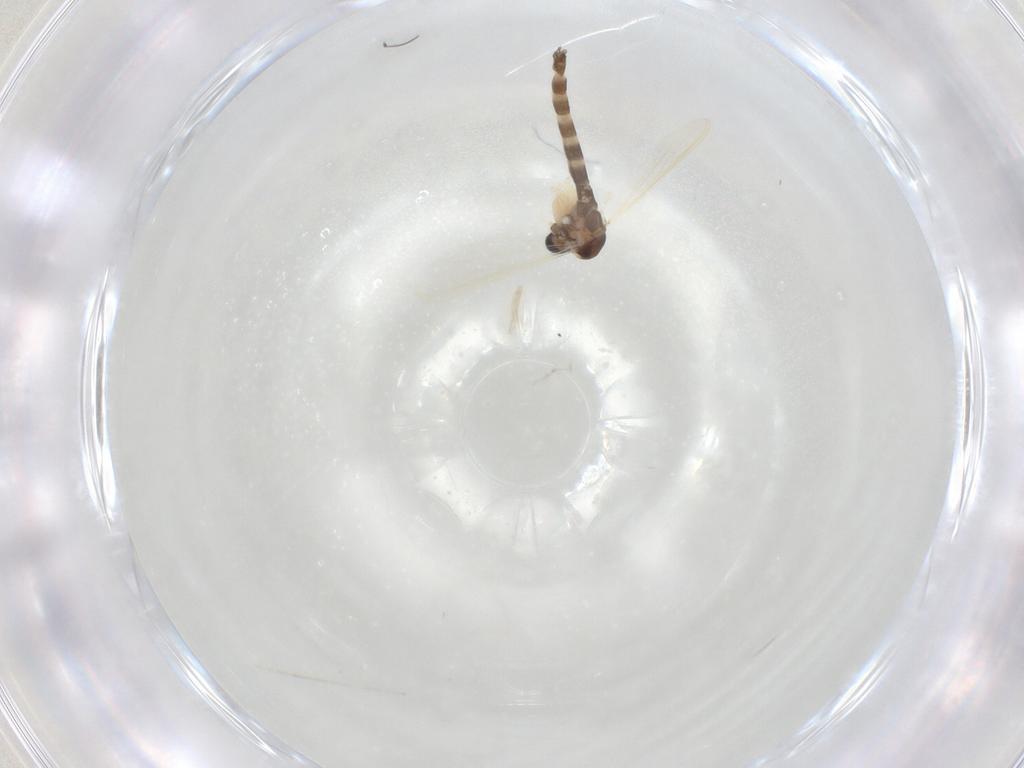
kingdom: Animalia
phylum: Arthropoda
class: Insecta
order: Diptera
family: Chironomidae
